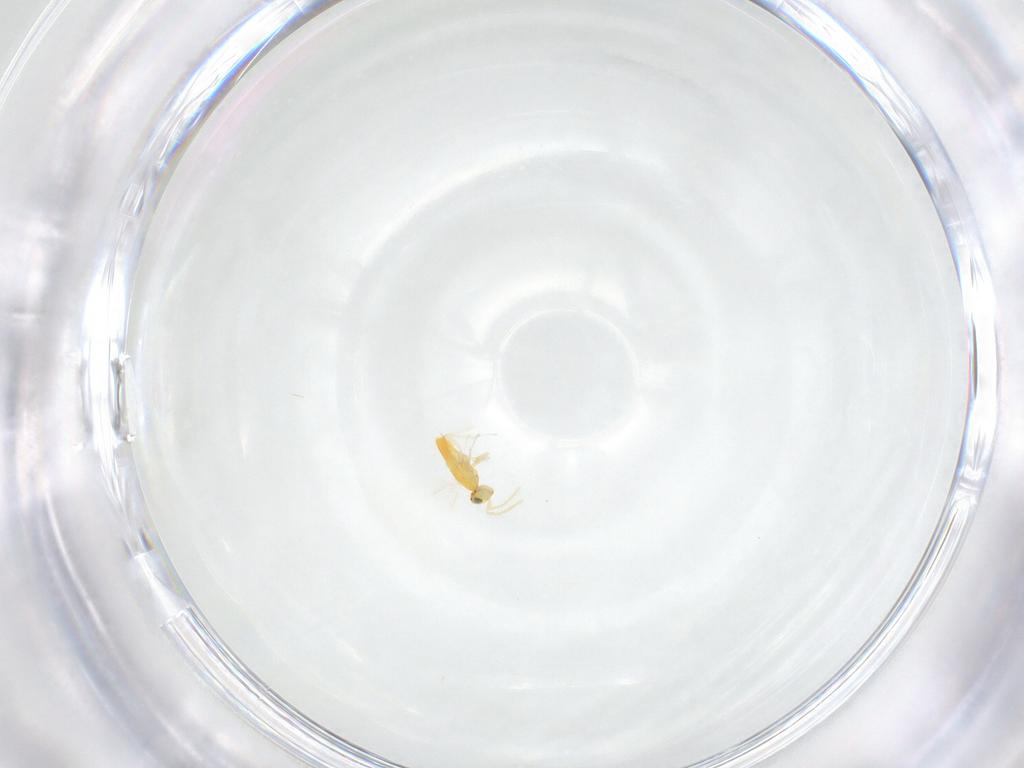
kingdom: Animalia
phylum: Arthropoda
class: Insecta
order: Hymenoptera
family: Aphelinidae
